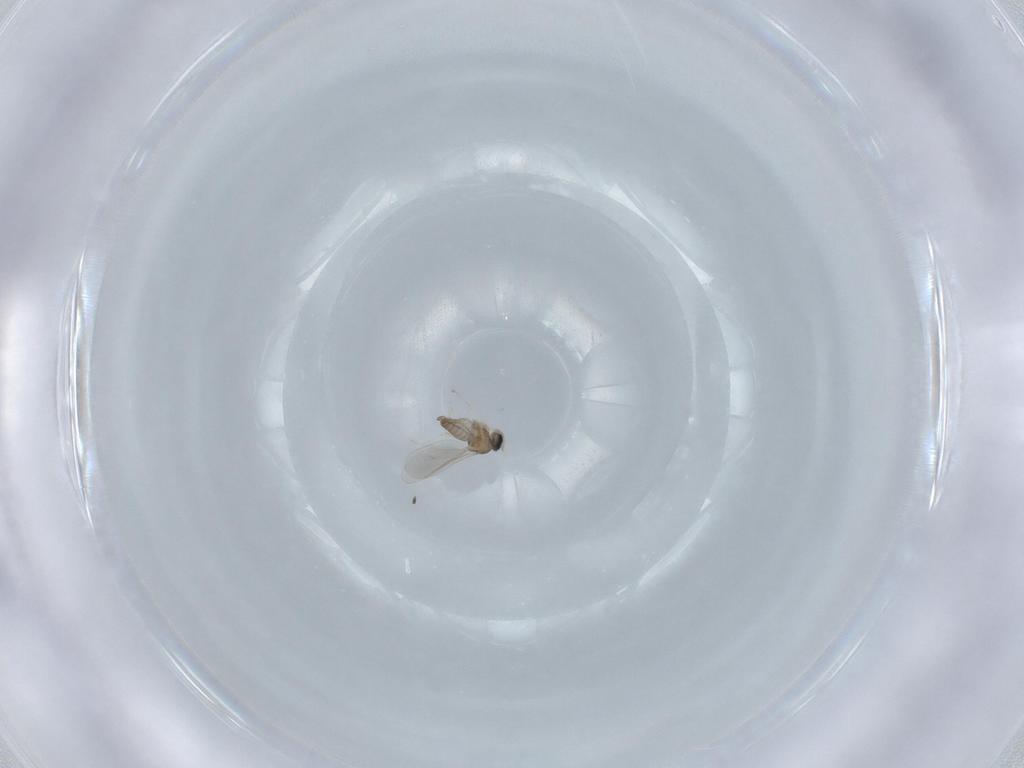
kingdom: Animalia
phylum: Arthropoda
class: Insecta
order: Diptera
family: Cecidomyiidae
